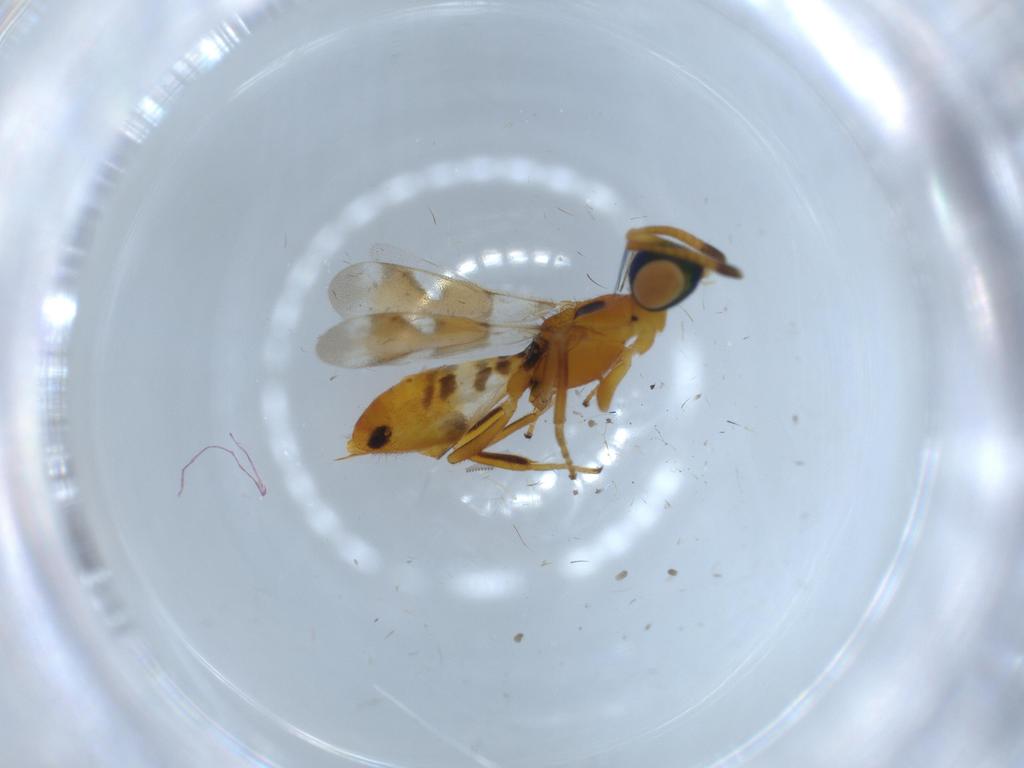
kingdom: Animalia
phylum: Arthropoda
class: Insecta
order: Hymenoptera
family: Eupelmidae
